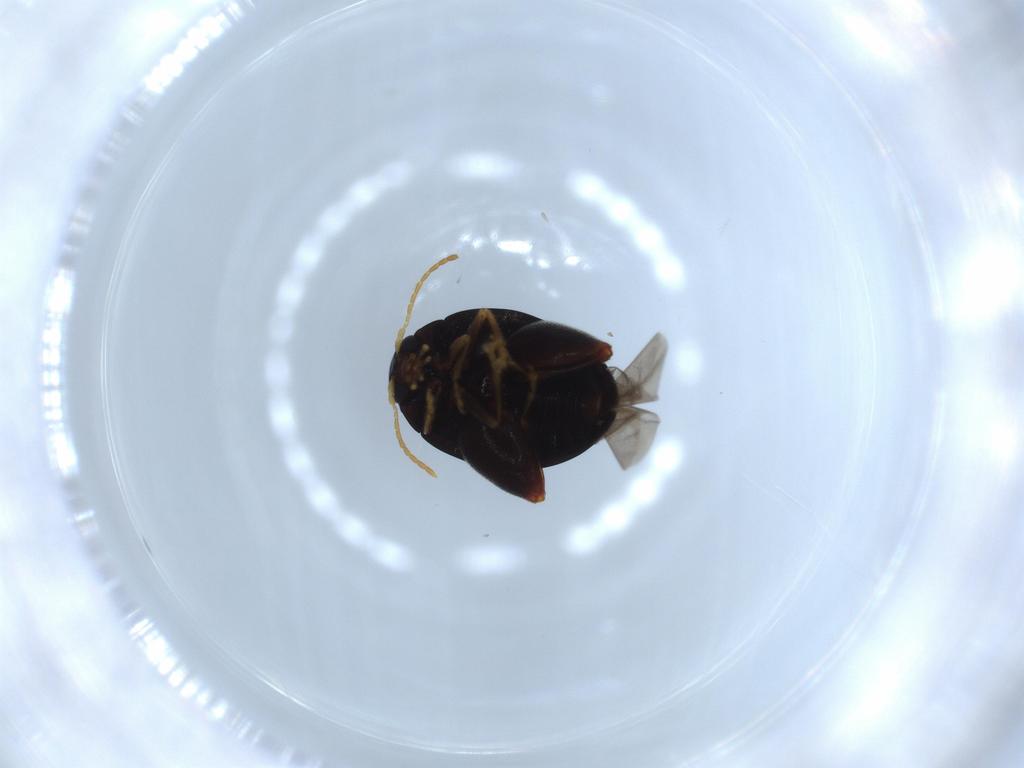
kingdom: Animalia
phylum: Arthropoda
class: Insecta
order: Coleoptera
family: Chrysomelidae
